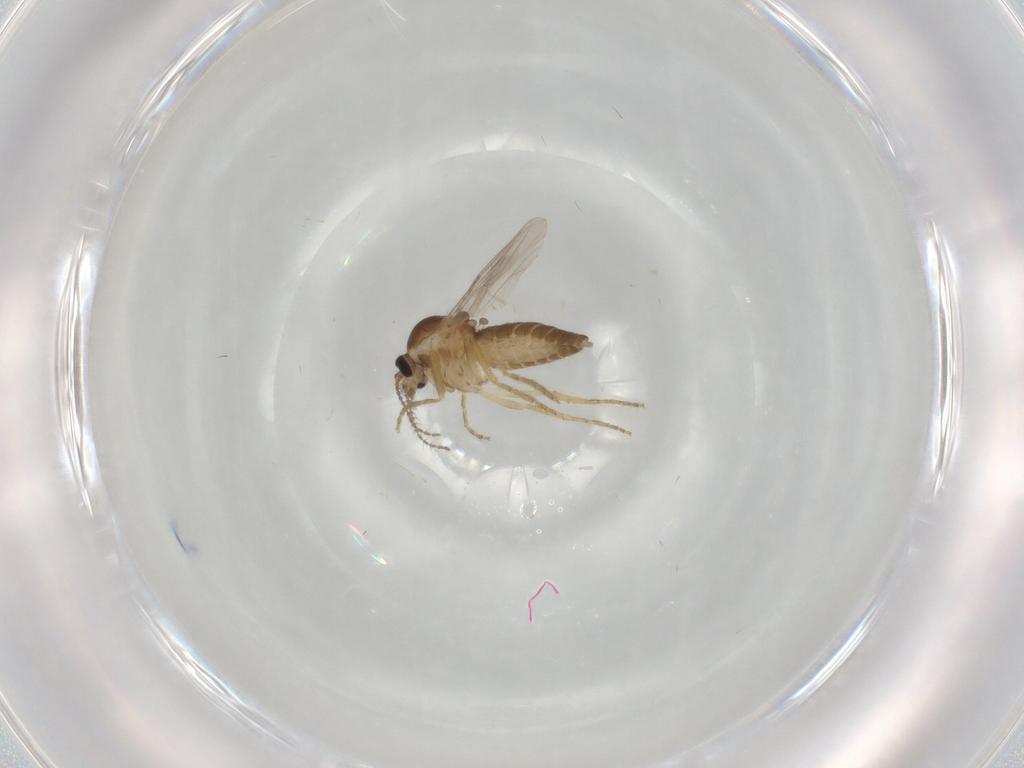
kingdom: Animalia
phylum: Arthropoda
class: Insecta
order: Diptera
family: Ceratopogonidae
